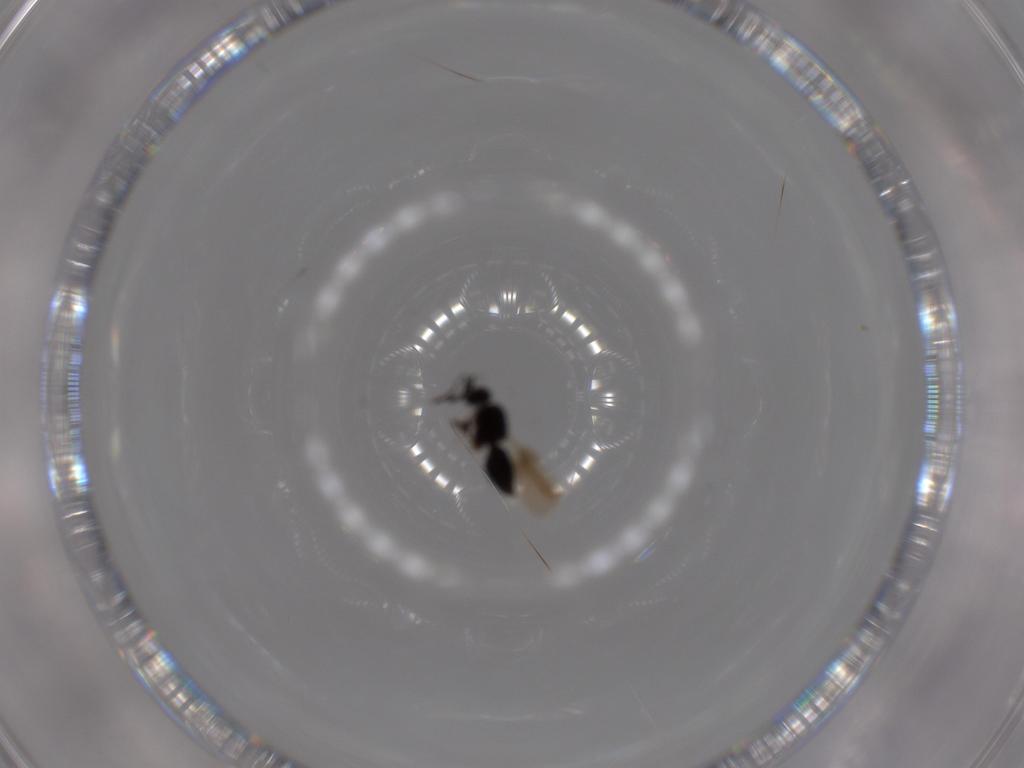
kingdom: Animalia
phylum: Arthropoda
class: Insecta
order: Hymenoptera
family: Ceraphronidae
